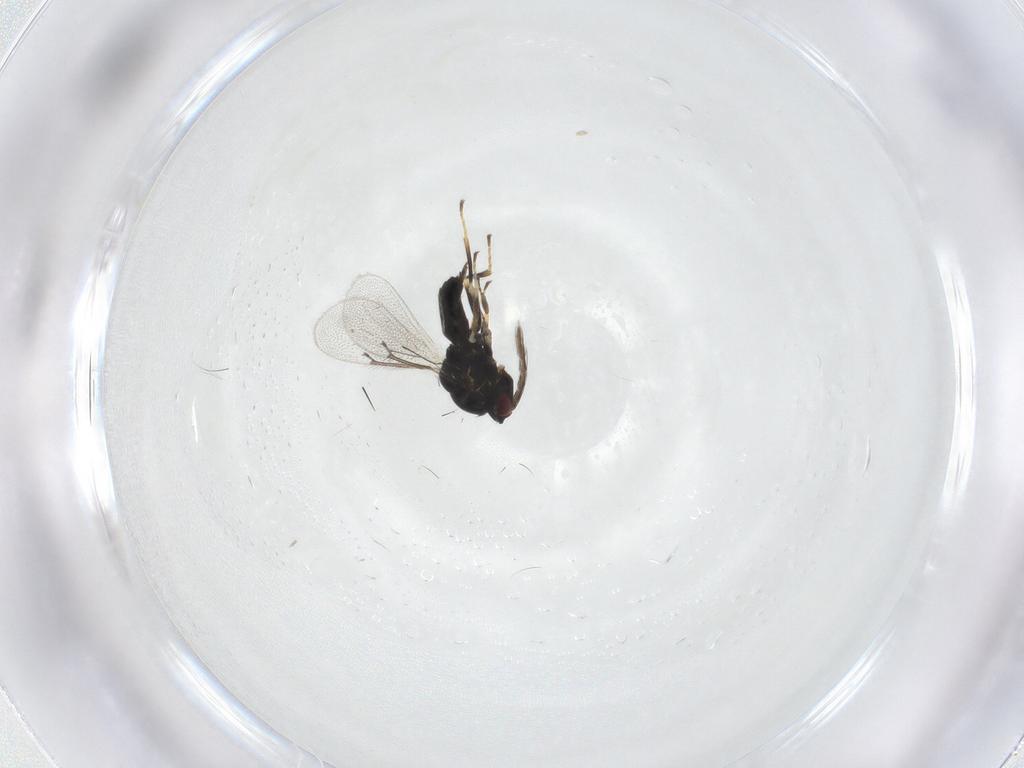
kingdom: Animalia
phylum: Arthropoda
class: Insecta
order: Hymenoptera
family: Eulophidae
